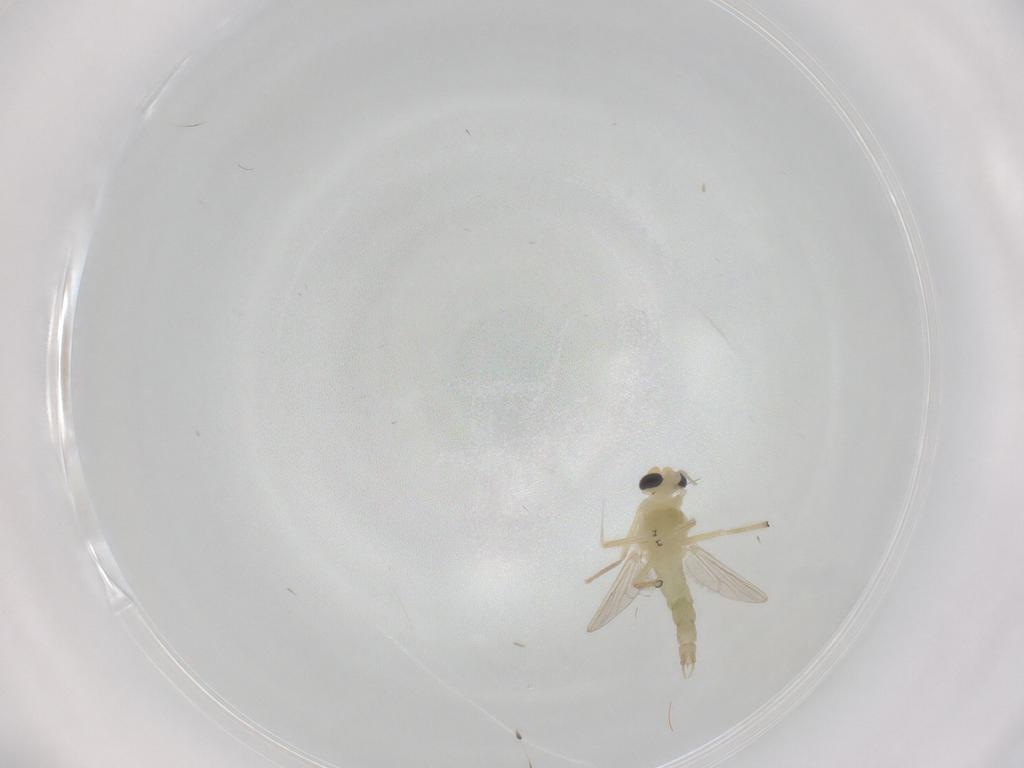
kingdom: Animalia
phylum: Arthropoda
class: Insecta
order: Diptera
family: Chironomidae
